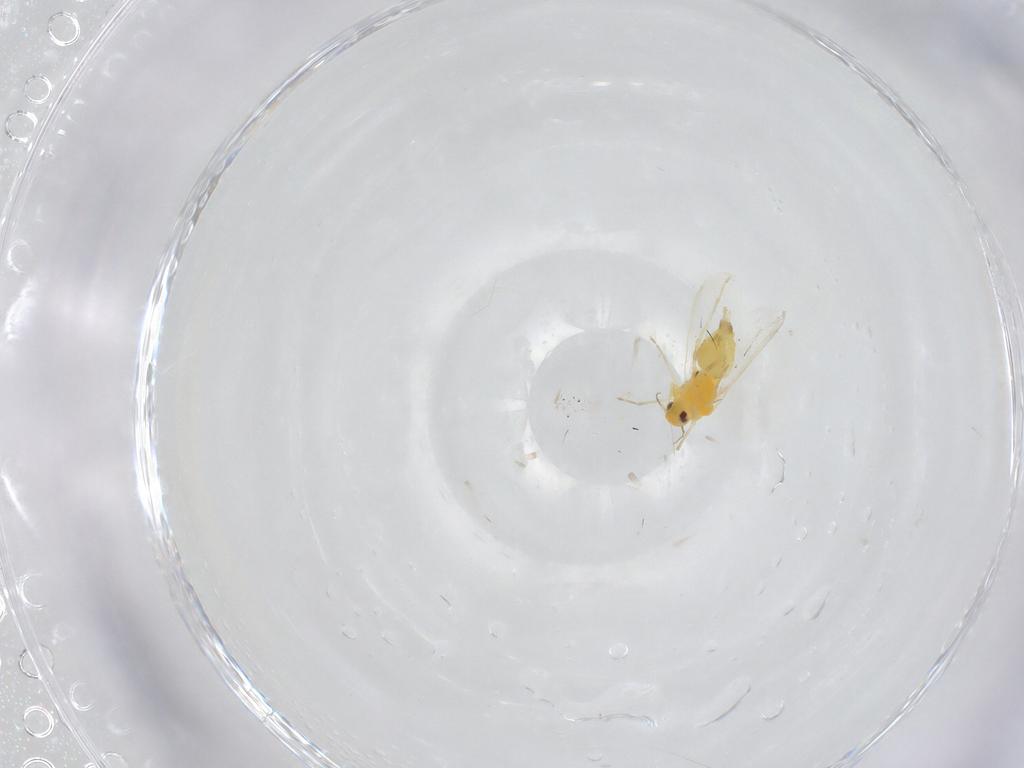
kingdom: Animalia
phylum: Arthropoda
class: Insecta
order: Hemiptera
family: Aleyrodidae
